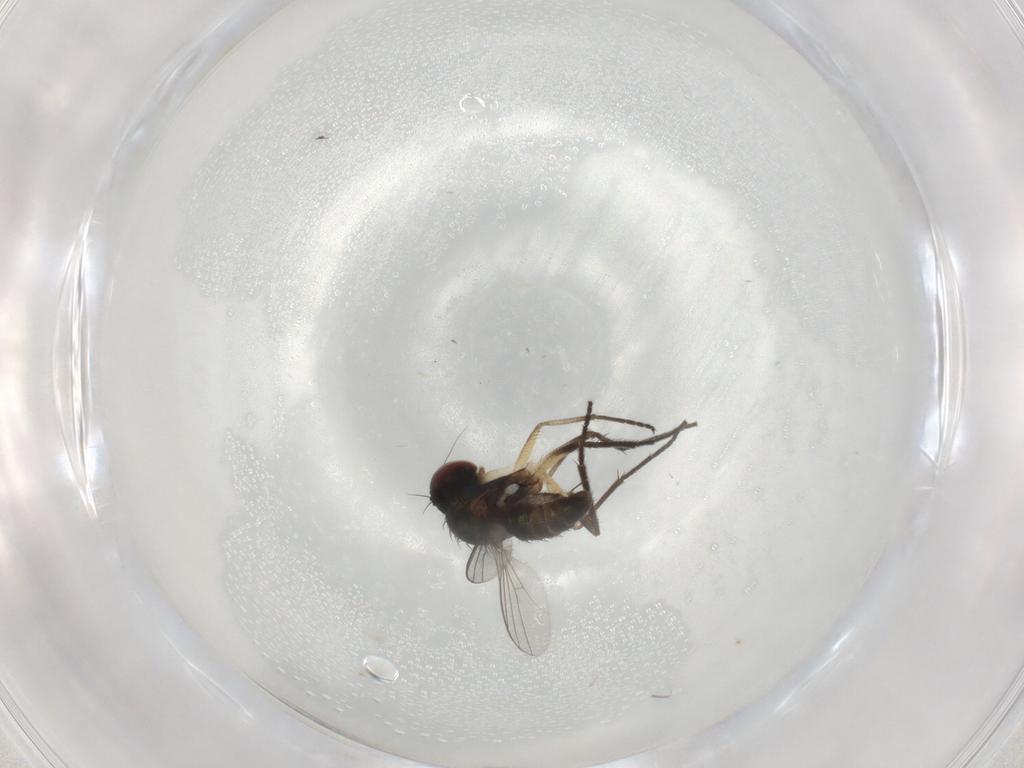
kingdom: Animalia
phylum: Arthropoda
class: Insecta
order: Diptera
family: Dolichopodidae
